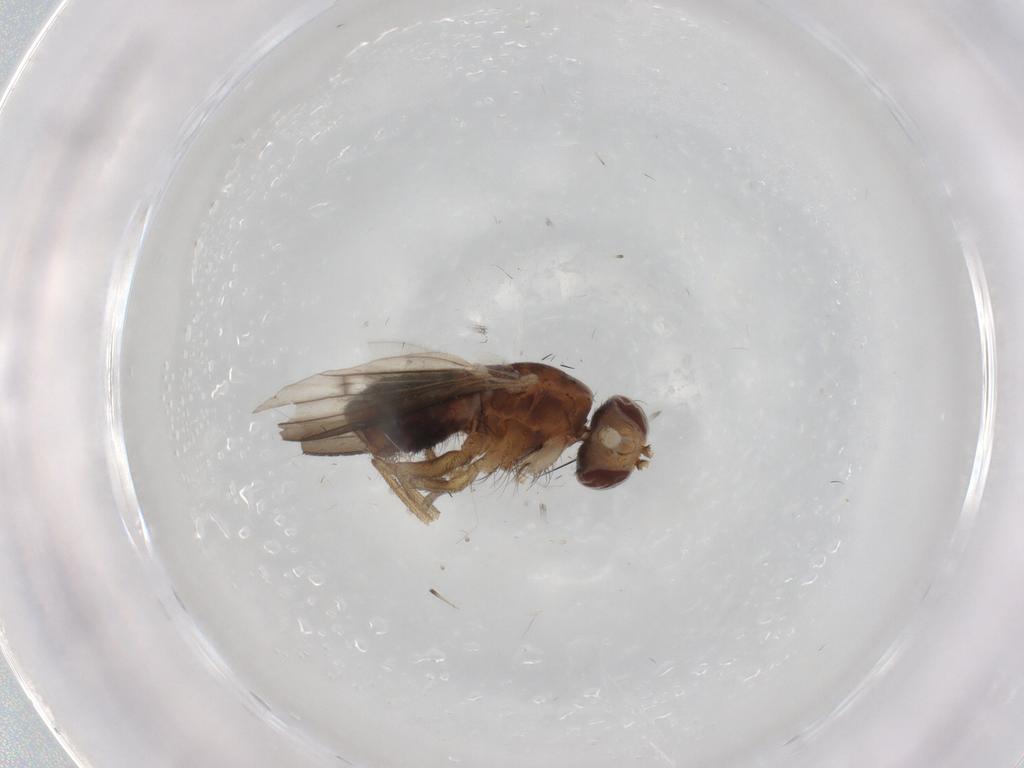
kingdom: Animalia
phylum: Arthropoda
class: Insecta
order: Diptera
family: Heleomyzidae
